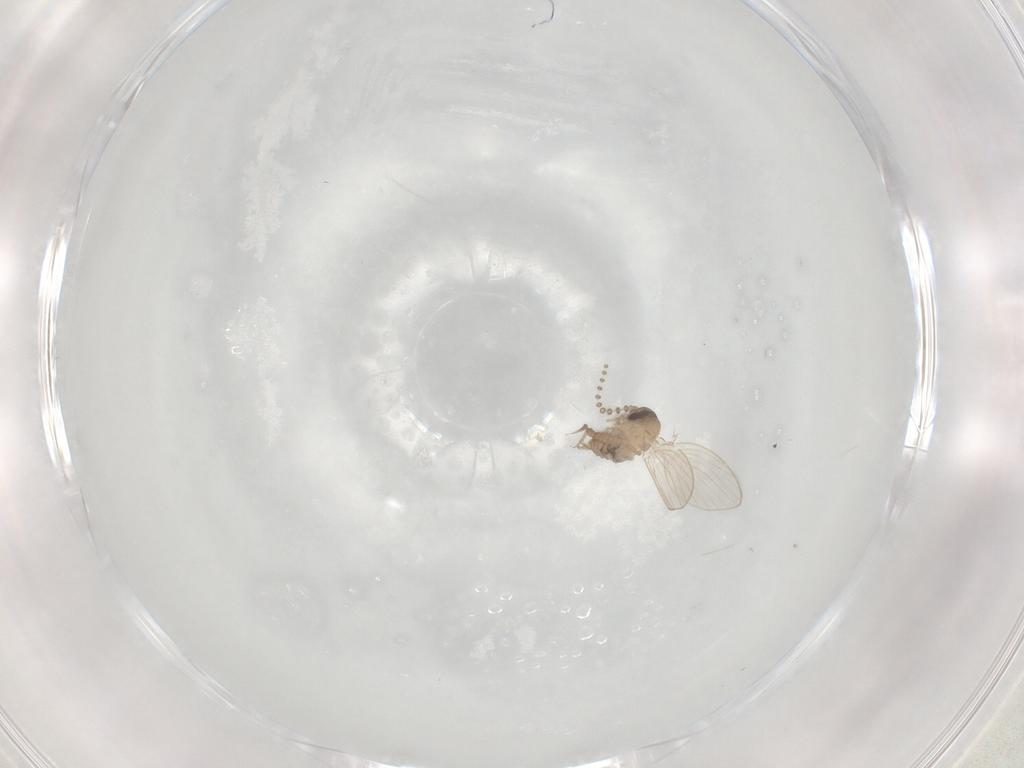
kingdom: Animalia
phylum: Arthropoda
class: Insecta
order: Diptera
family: Psychodidae
